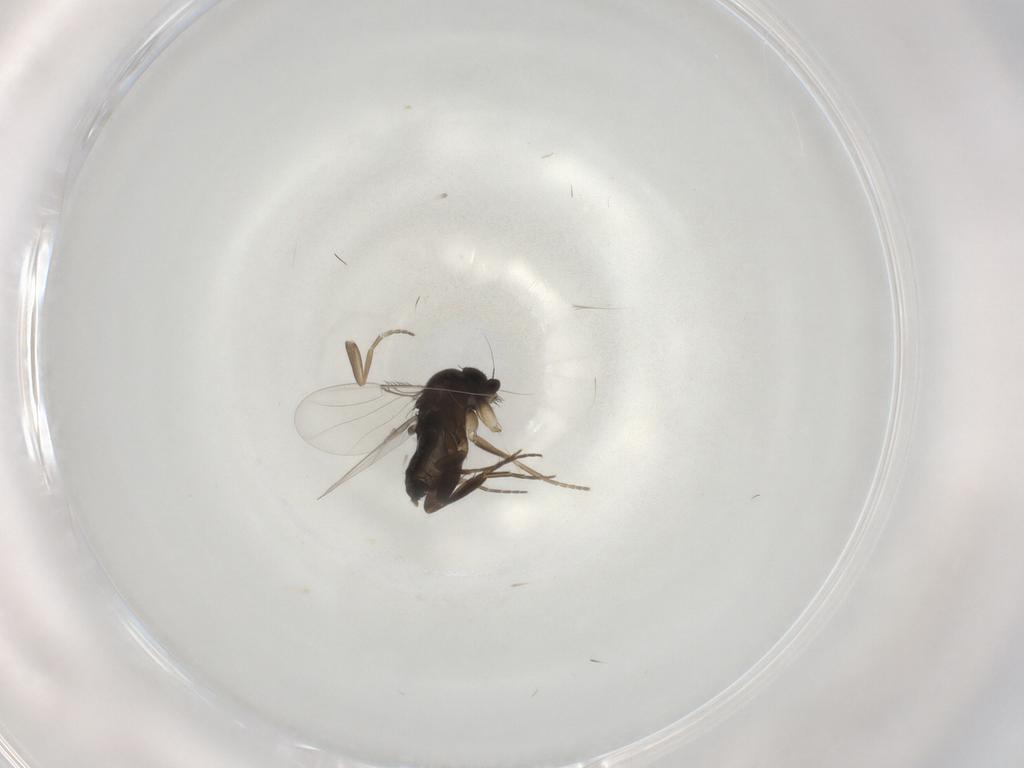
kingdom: Animalia
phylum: Arthropoda
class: Insecta
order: Diptera
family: Phoridae
